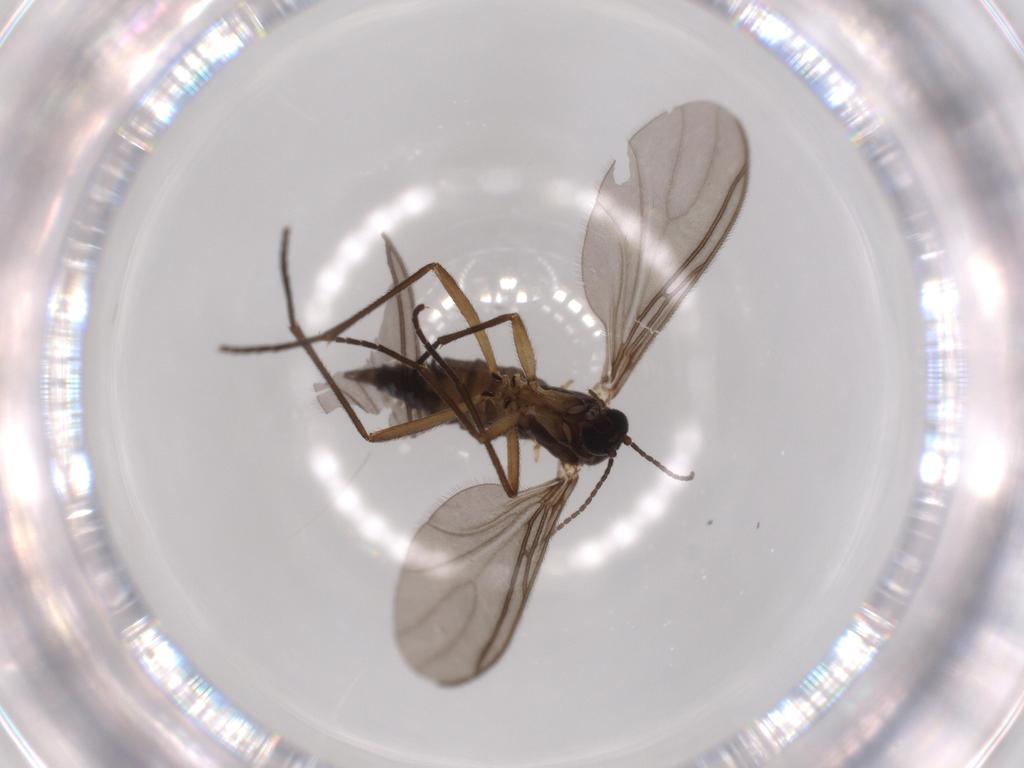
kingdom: Animalia
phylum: Arthropoda
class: Insecta
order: Diptera
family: Sciaridae
